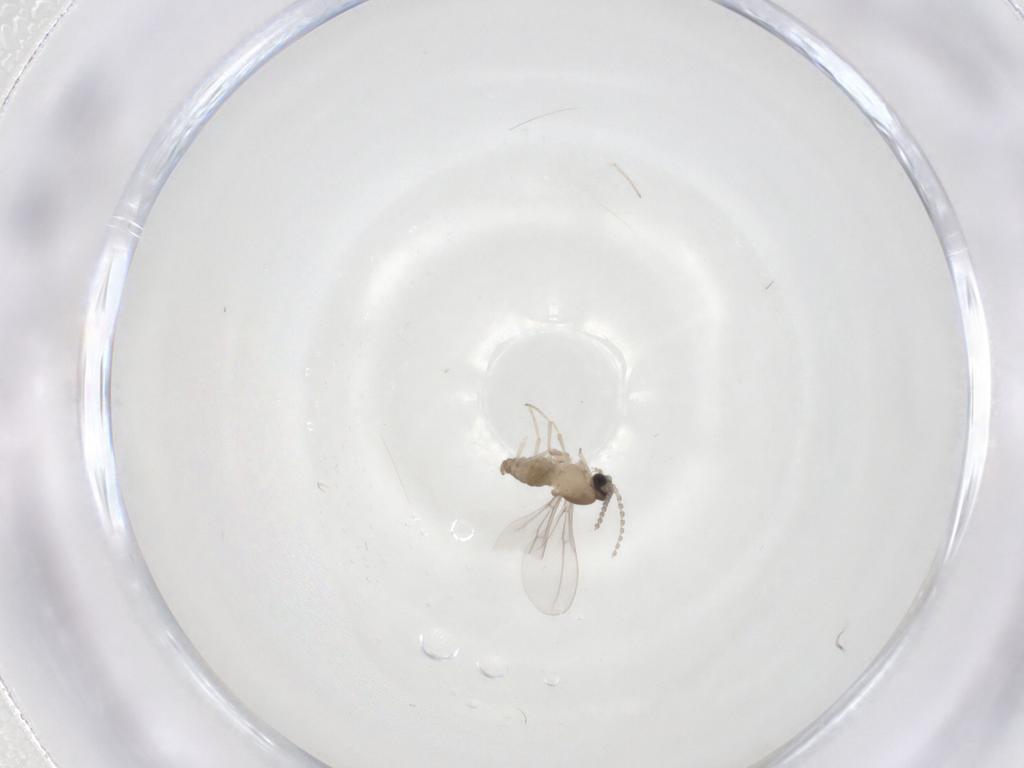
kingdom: Animalia
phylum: Arthropoda
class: Insecta
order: Diptera
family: Cecidomyiidae
